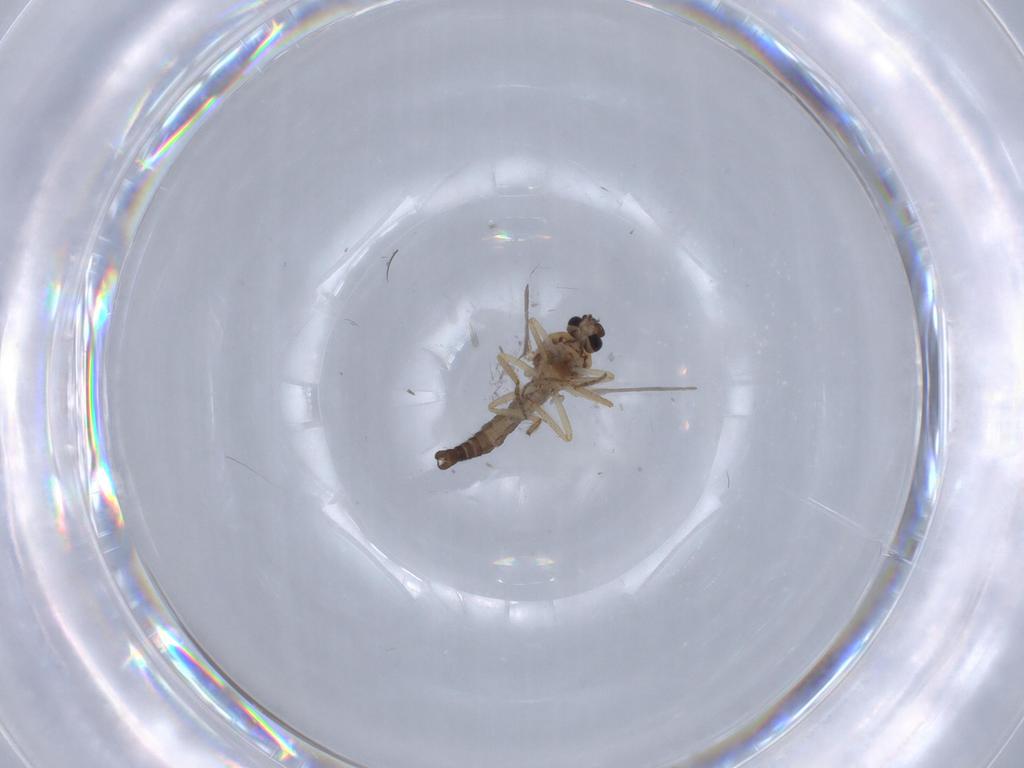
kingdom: Animalia
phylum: Arthropoda
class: Insecta
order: Diptera
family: Ceratopogonidae
